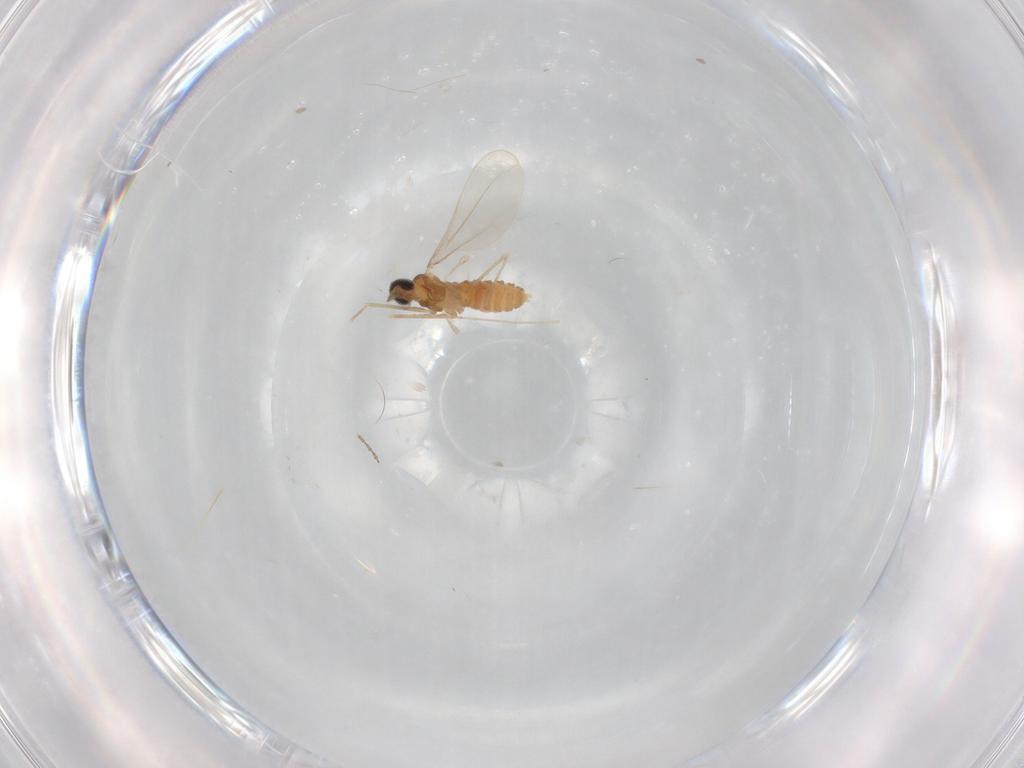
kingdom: Animalia
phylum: Arthropoda
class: Insecta
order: Diptera
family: Cecidomyiidae
